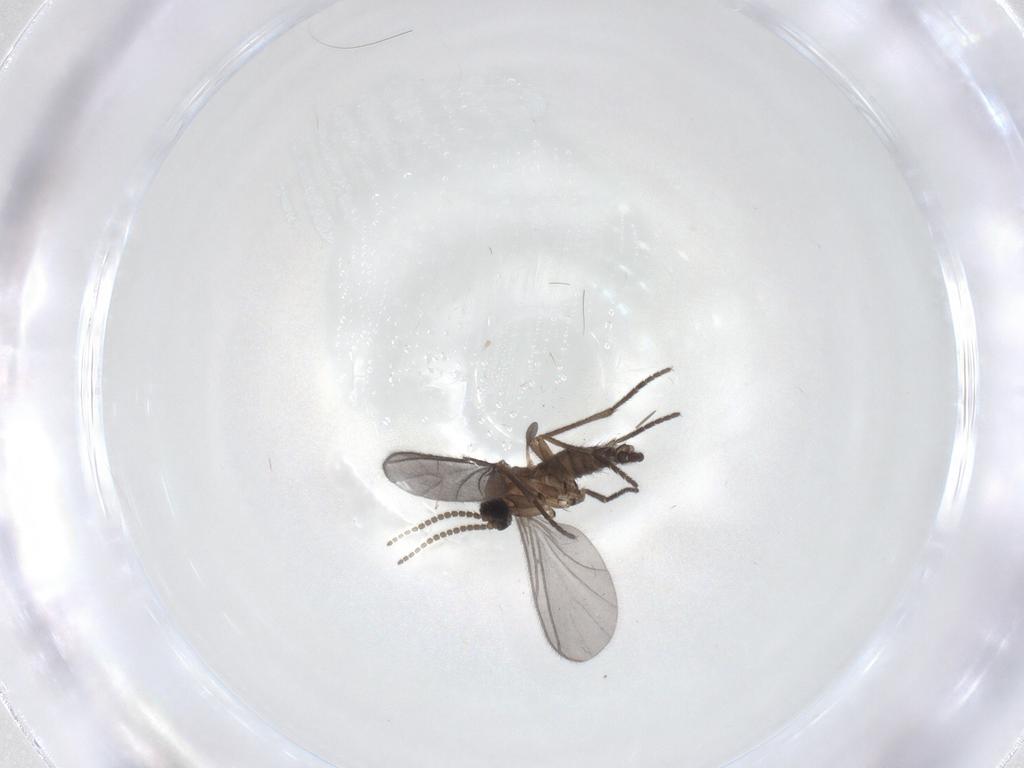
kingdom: Animalia
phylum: Arthropoda
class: Insecta
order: Diptera
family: Sciaridae
